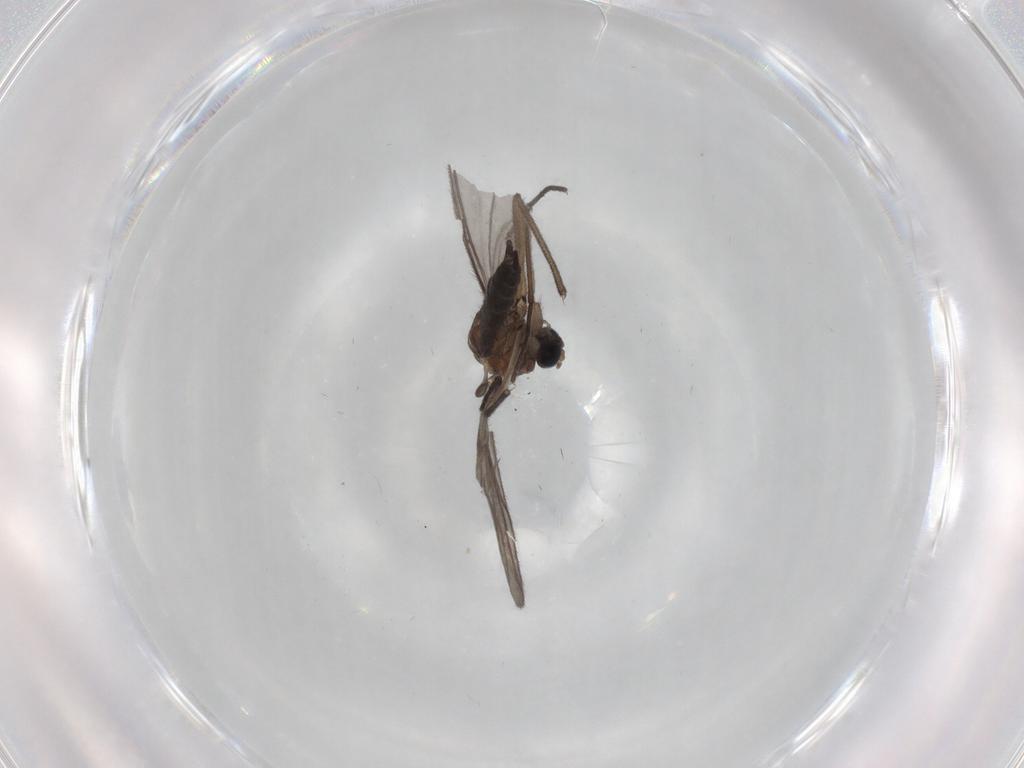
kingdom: Animalia
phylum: Arthropoda
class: Insecta
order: Diptera
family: Sciaridae
